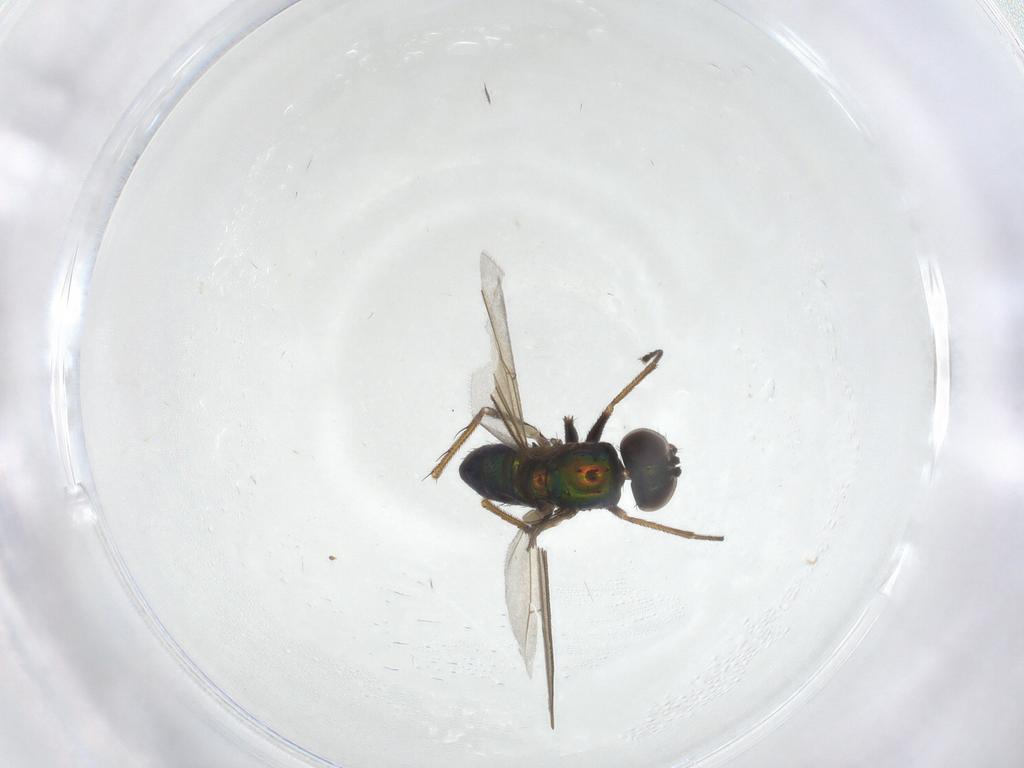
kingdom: Animalia
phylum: Arthropoda
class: Insecta
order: Diptera
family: Dolichopodidae
